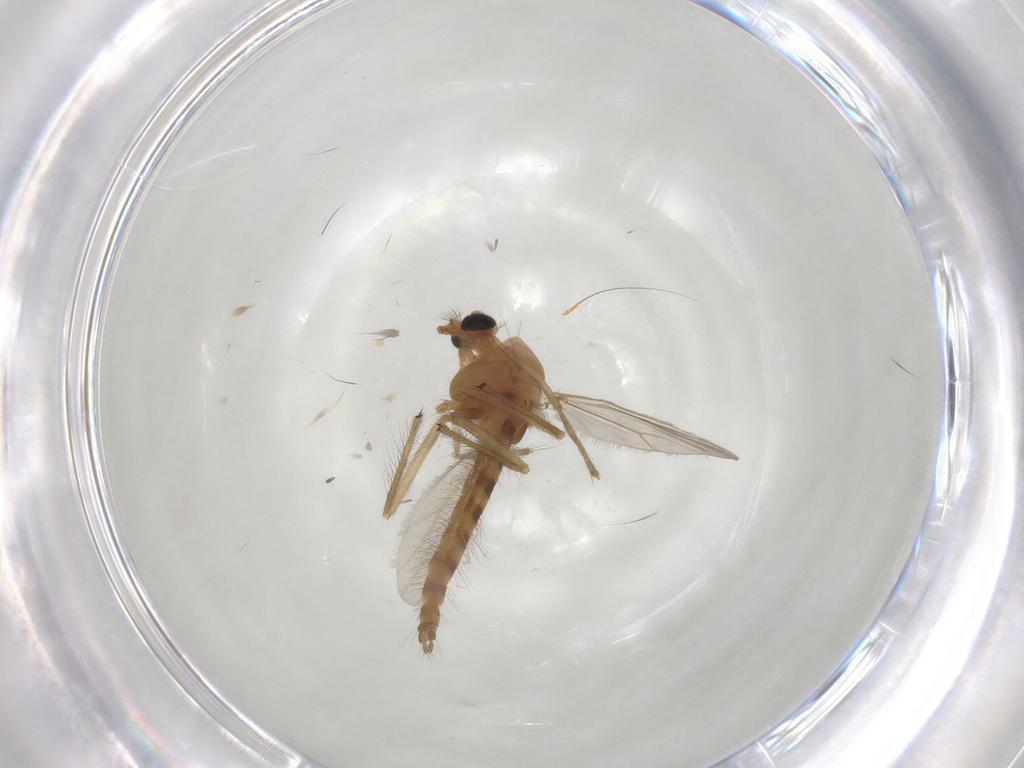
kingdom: Animalia
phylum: Arthropoda
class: Insecta
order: Diptera
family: Chironomidae
